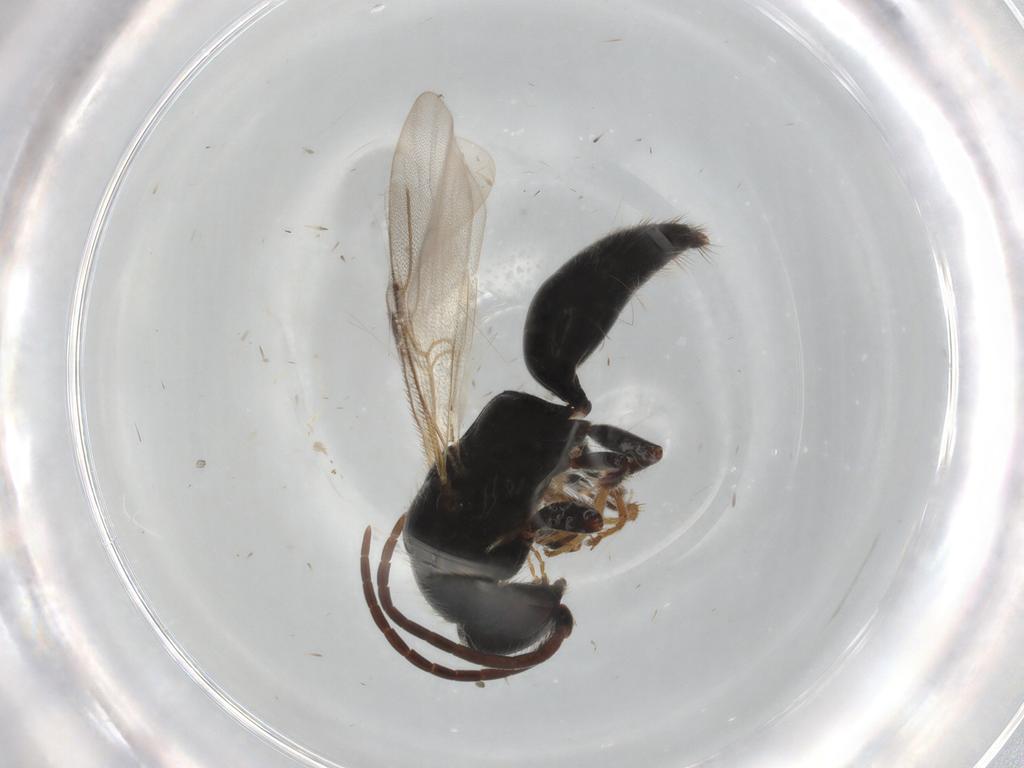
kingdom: Animalia
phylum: Arthropoda
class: Insecta
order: Hymenoptera
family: Bethylidae
